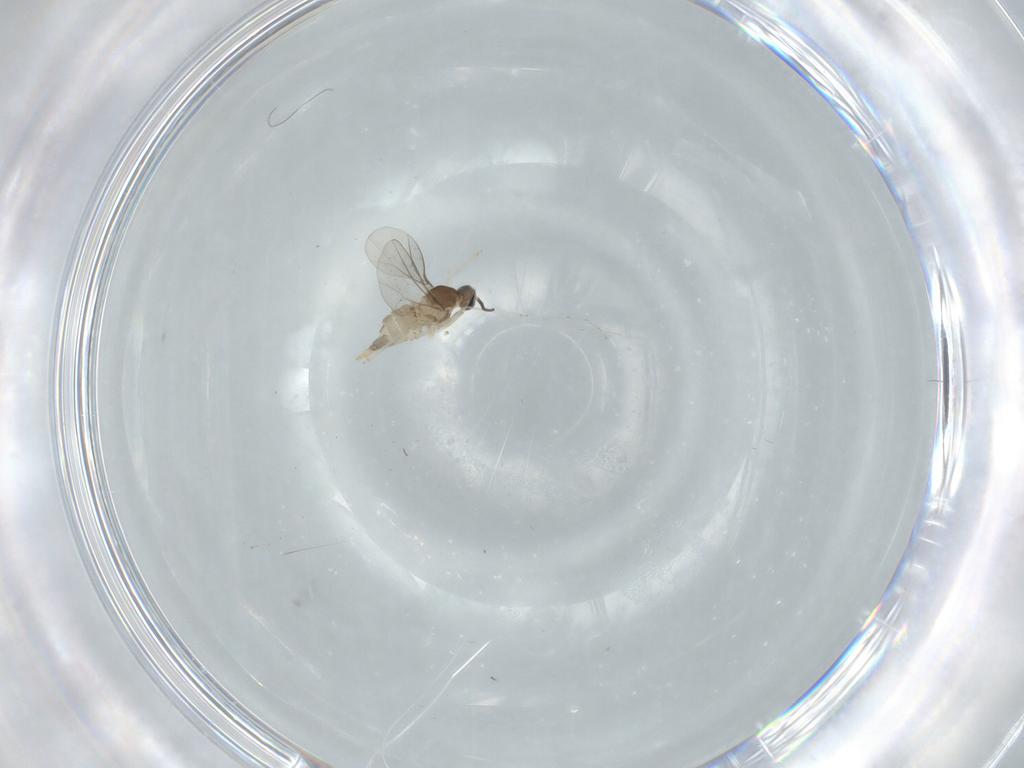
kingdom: Animalia
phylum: Arthropoda
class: Insecta
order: Diptera
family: Cecidomyiidae
